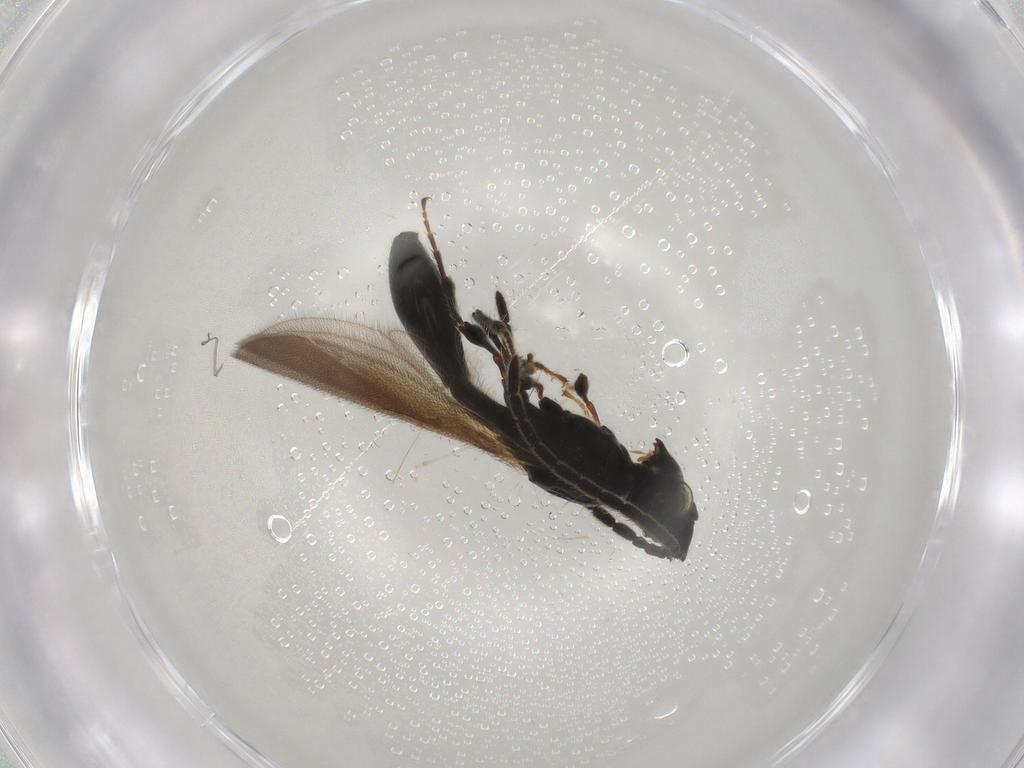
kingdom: Animalia
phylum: Arthropoda
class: Insecta
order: Hymenoptera
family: Diapriidae
